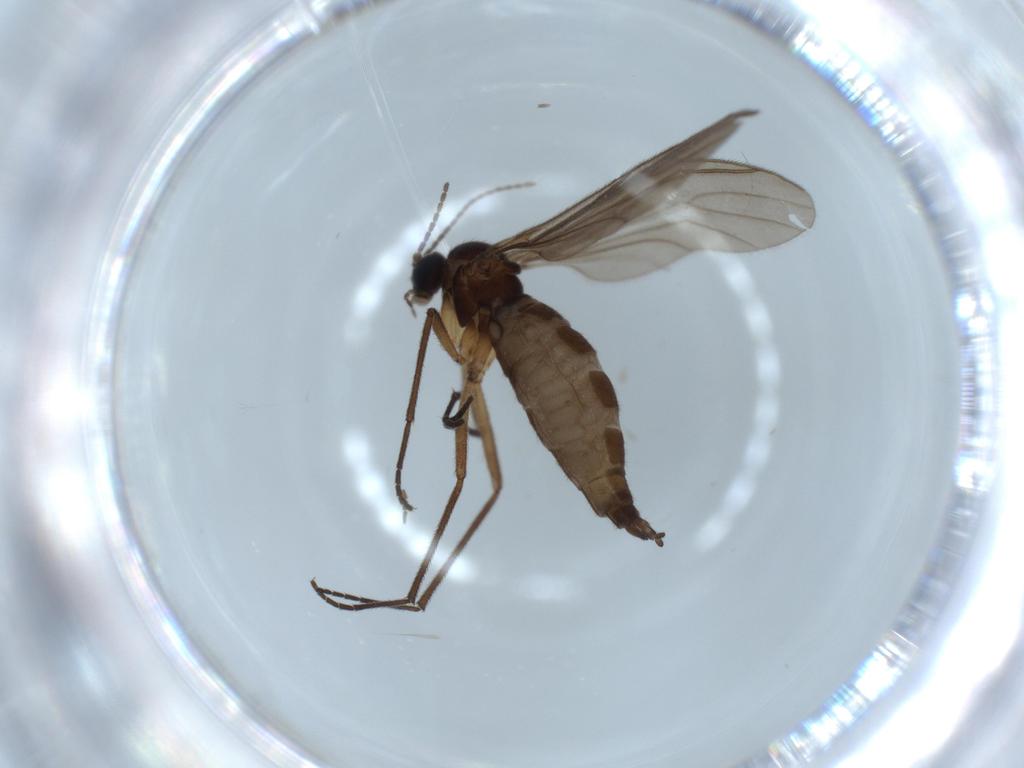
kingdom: Animalia
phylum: Arthropoda
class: Insecta
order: Diptera
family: Sciaridae
